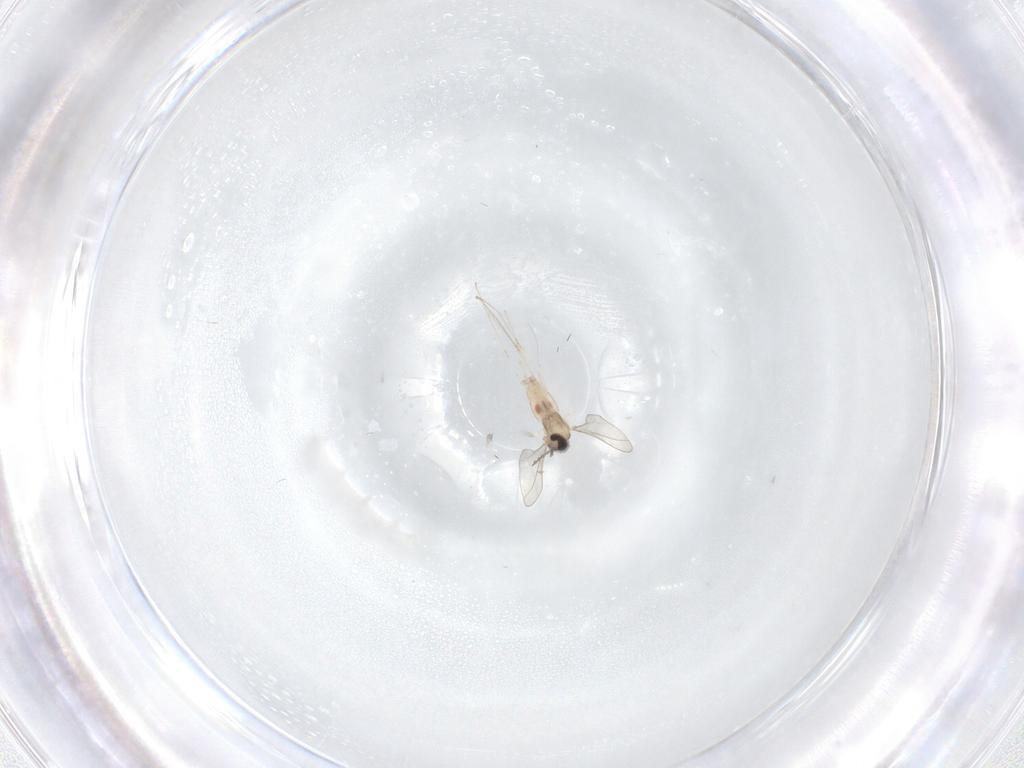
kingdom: Animalia
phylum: Arthropoda
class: Insecta
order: Diptera
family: Cecidomyiidae
